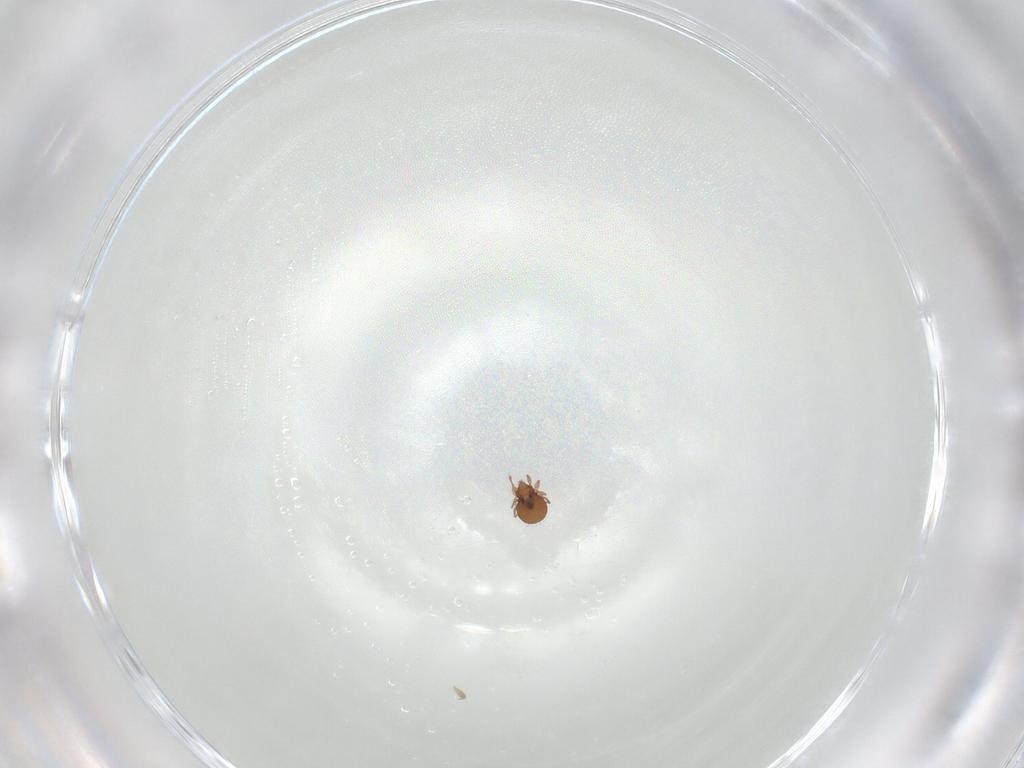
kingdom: Animalia
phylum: Arthropoda
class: Arachnida
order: Sarcoptiformes
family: Oribatulidae
